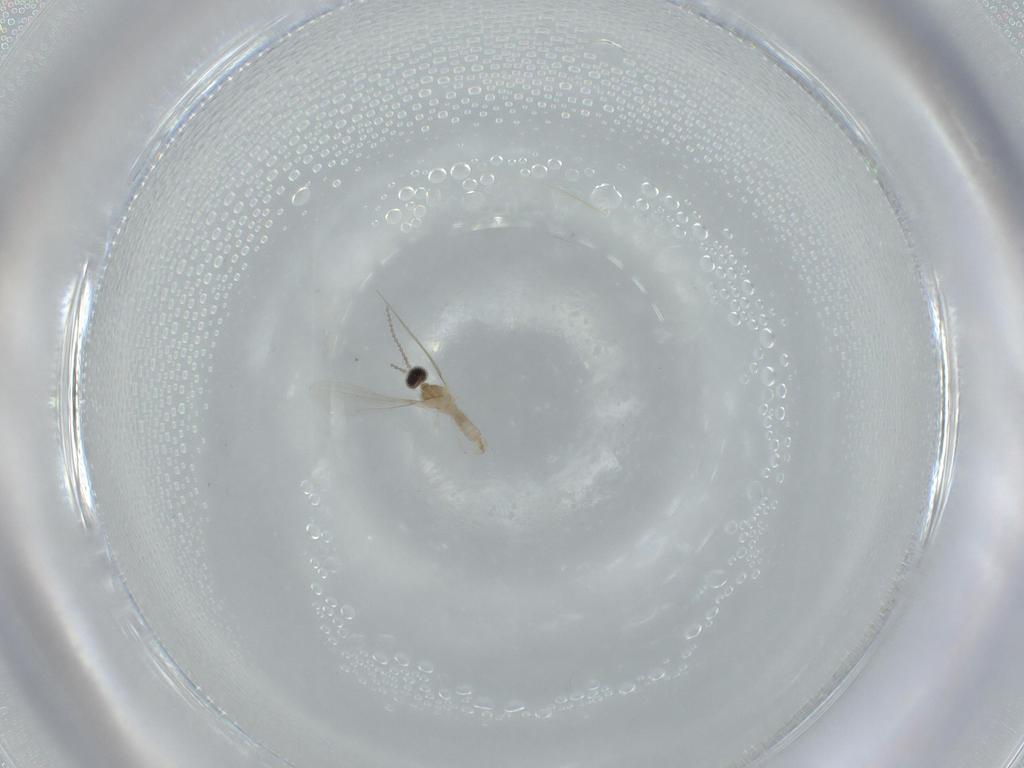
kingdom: Animalia
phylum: Arthropoda
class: Insecta
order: Diptera
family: Cecidomyiidae
